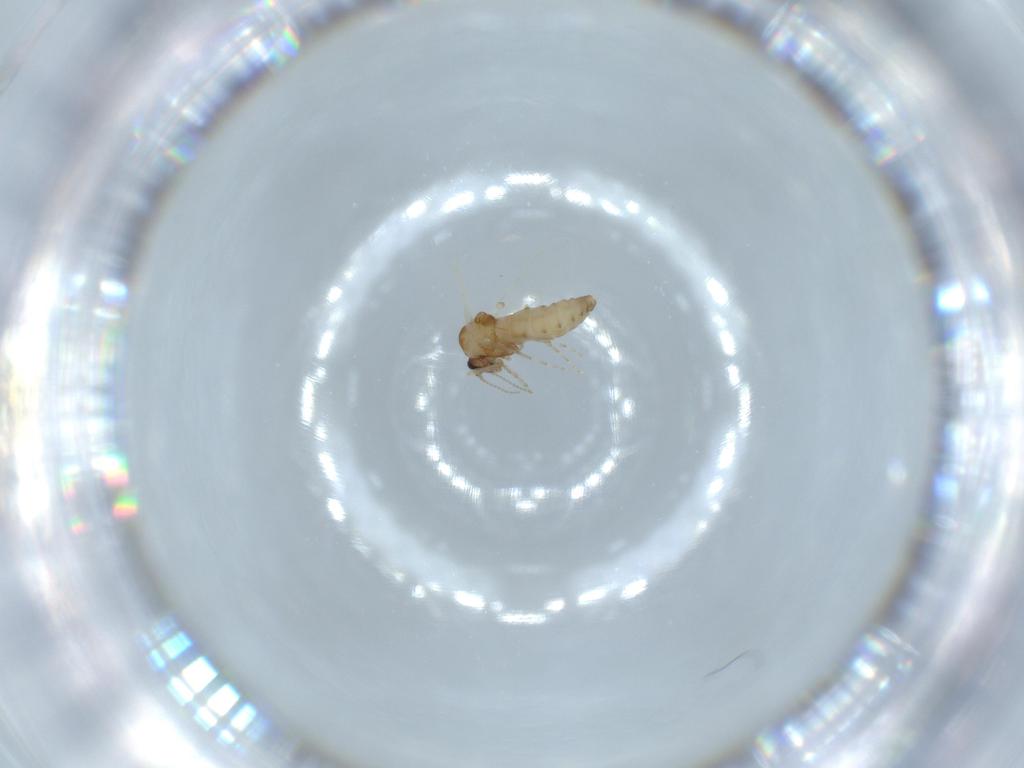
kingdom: Animalia
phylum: Arthropoda
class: Insecta
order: Diptera
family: Ceratopogonidae
